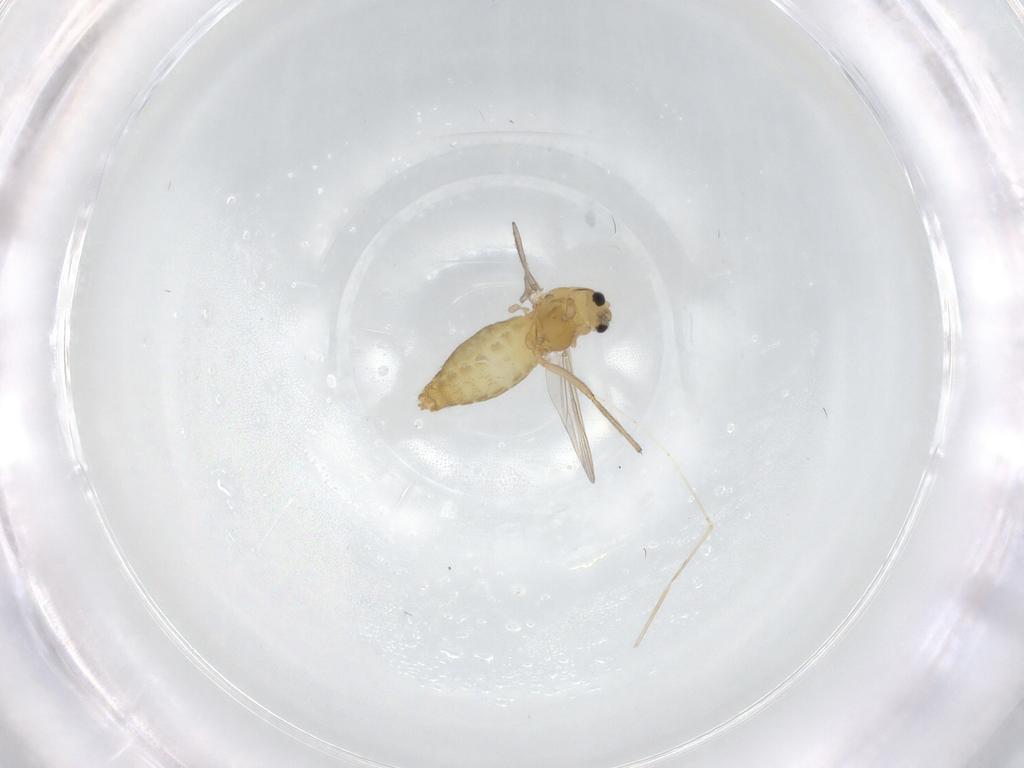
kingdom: Animalia
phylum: Arthropoda
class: Insecta
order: Diptera
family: Chironomidae
